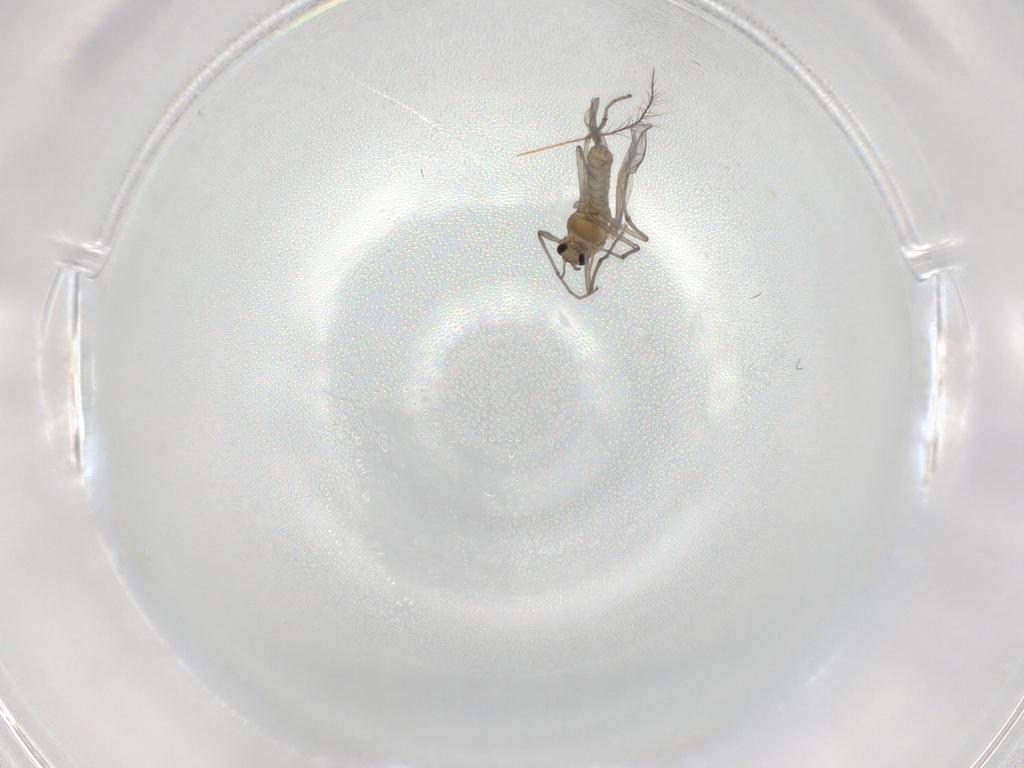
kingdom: Animalia
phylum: Arthropoda
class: Insecta
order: Diptera
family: Chironomidae
